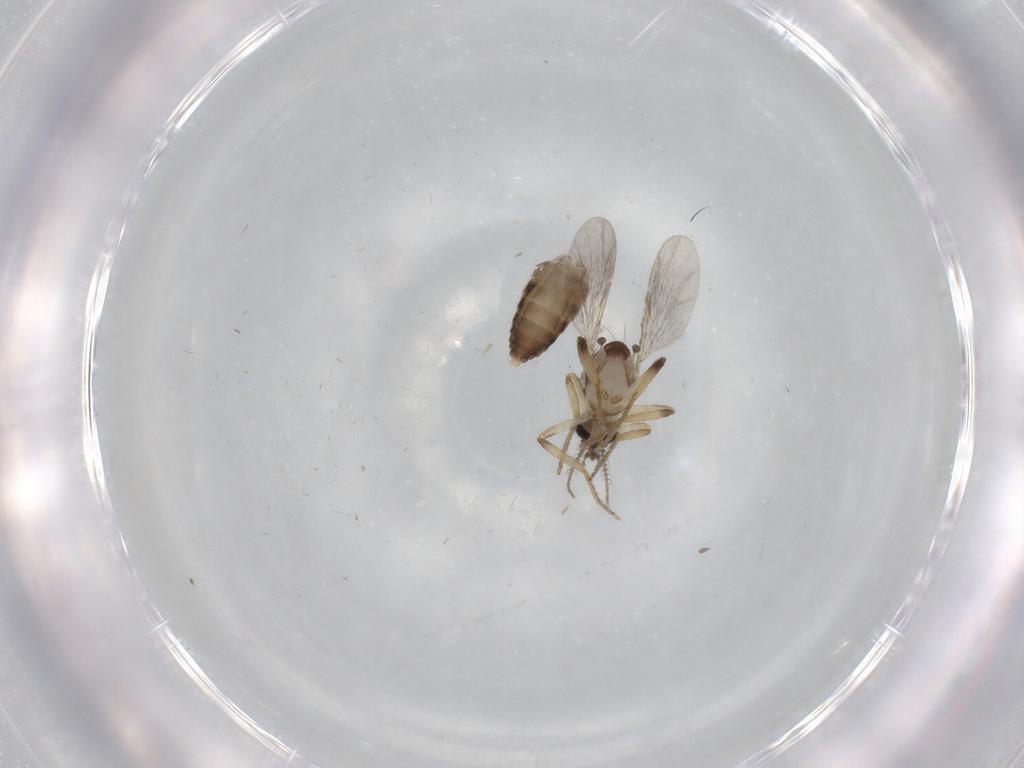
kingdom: Animalia
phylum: Arthropoda
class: Insecta
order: Diptera
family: Ceratopogonidae
